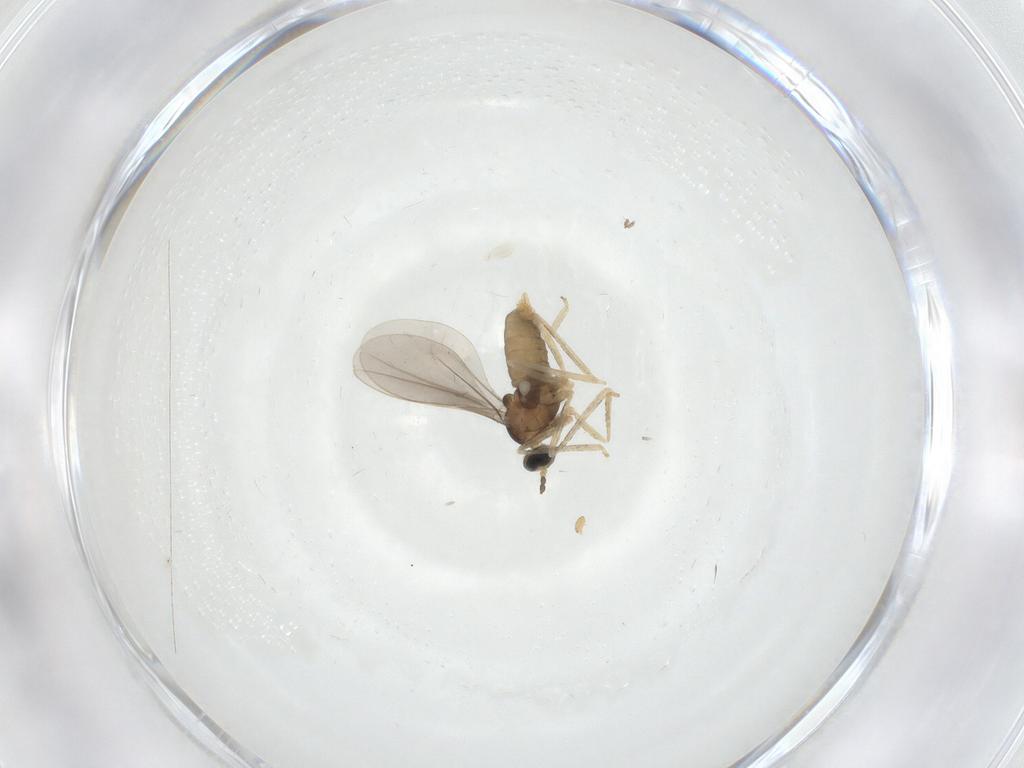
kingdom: Animalia
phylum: Arthropoda
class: Insecta
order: Diptera
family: Cecidomyiidae
